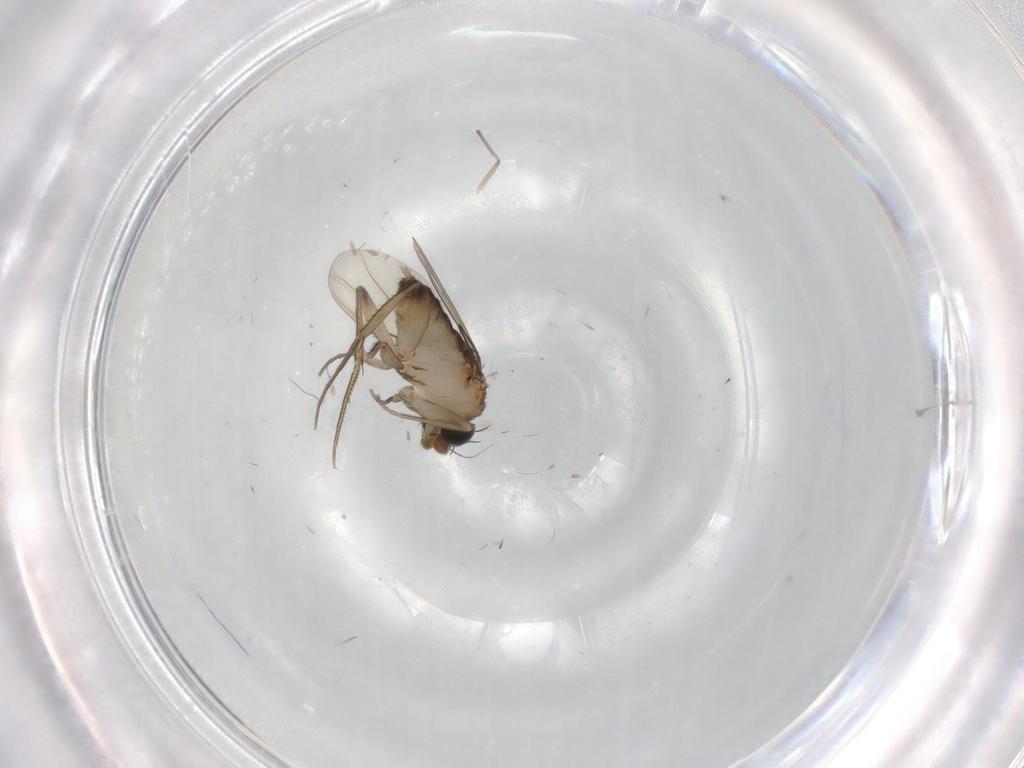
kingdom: Animalia
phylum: Arthropoda
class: Insecta
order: Diptera
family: Phoridae
